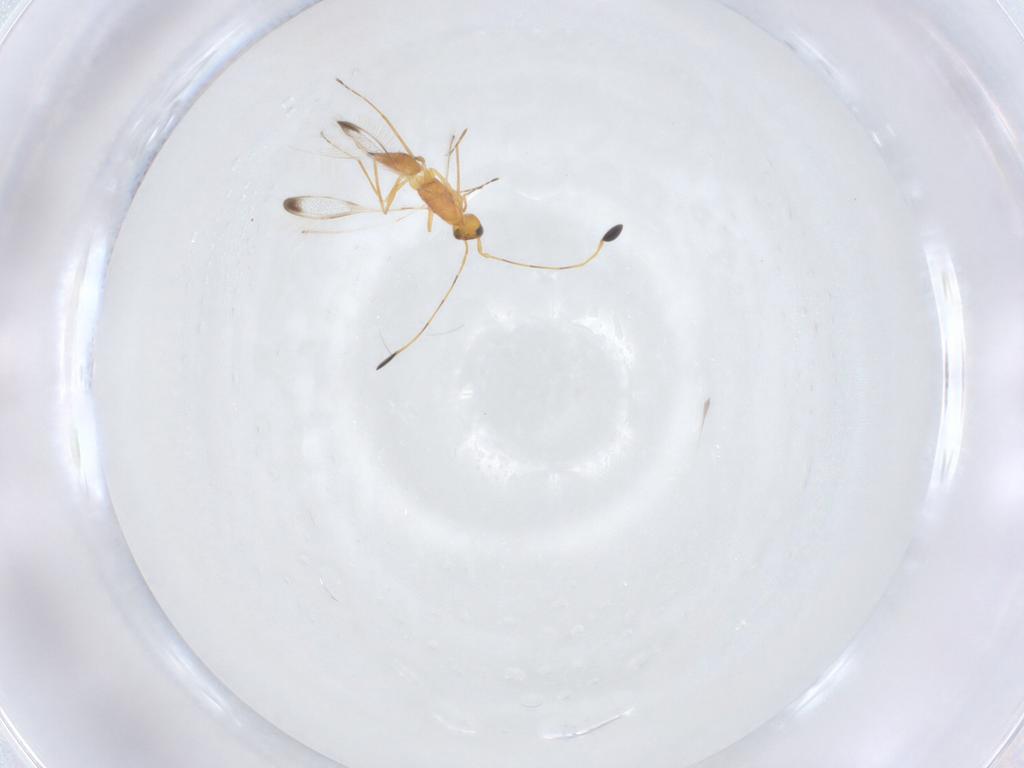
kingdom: Animalia
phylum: Arthropoda
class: Insecta
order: Hymenoptera
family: Mymaridae
